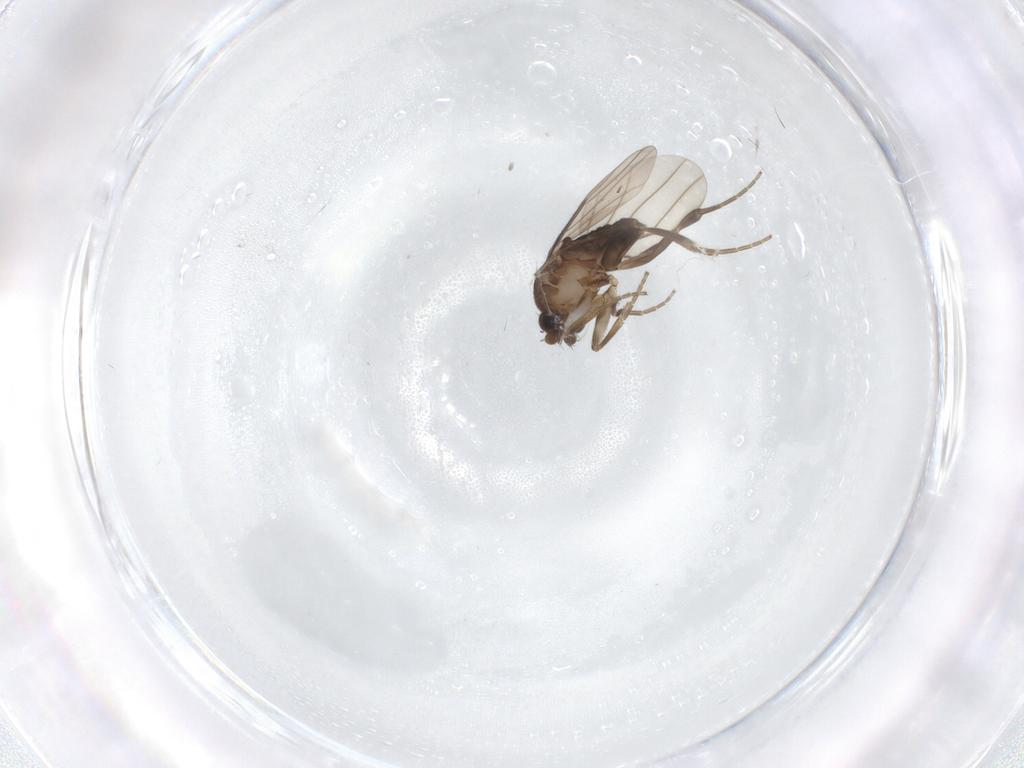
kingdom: Animalia
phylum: Arthropoda
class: Insecta
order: Diptera
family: Phoridae
